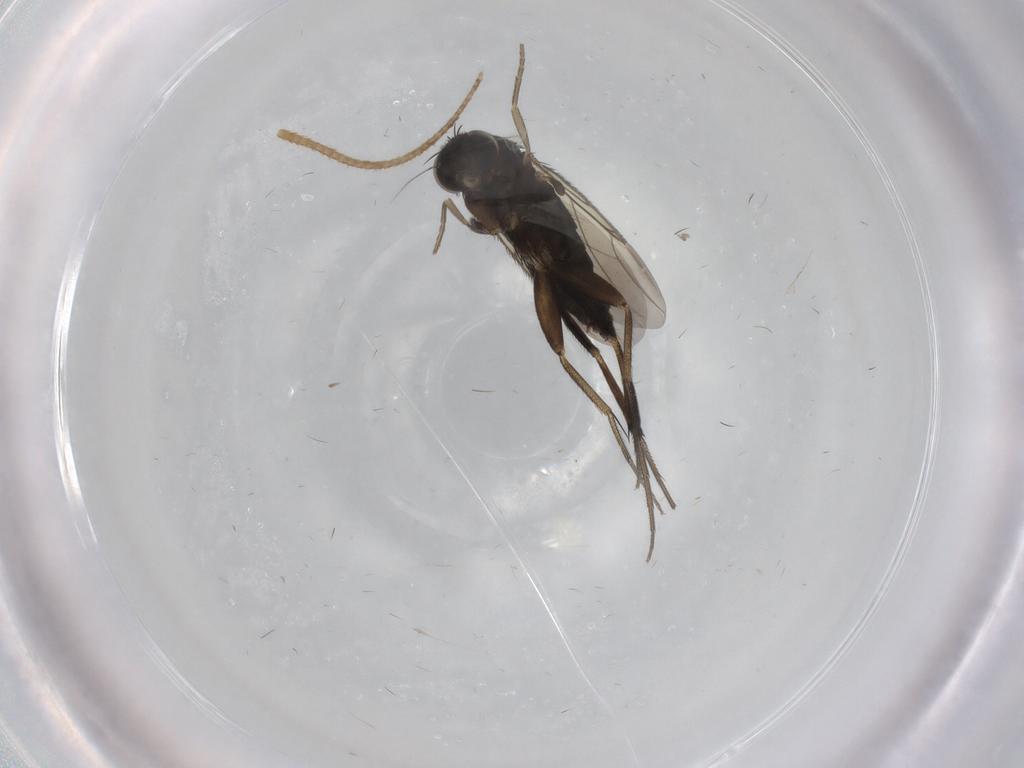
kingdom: Animalia
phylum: Arthropoda
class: Insecta
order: Diptera
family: Phoridae
